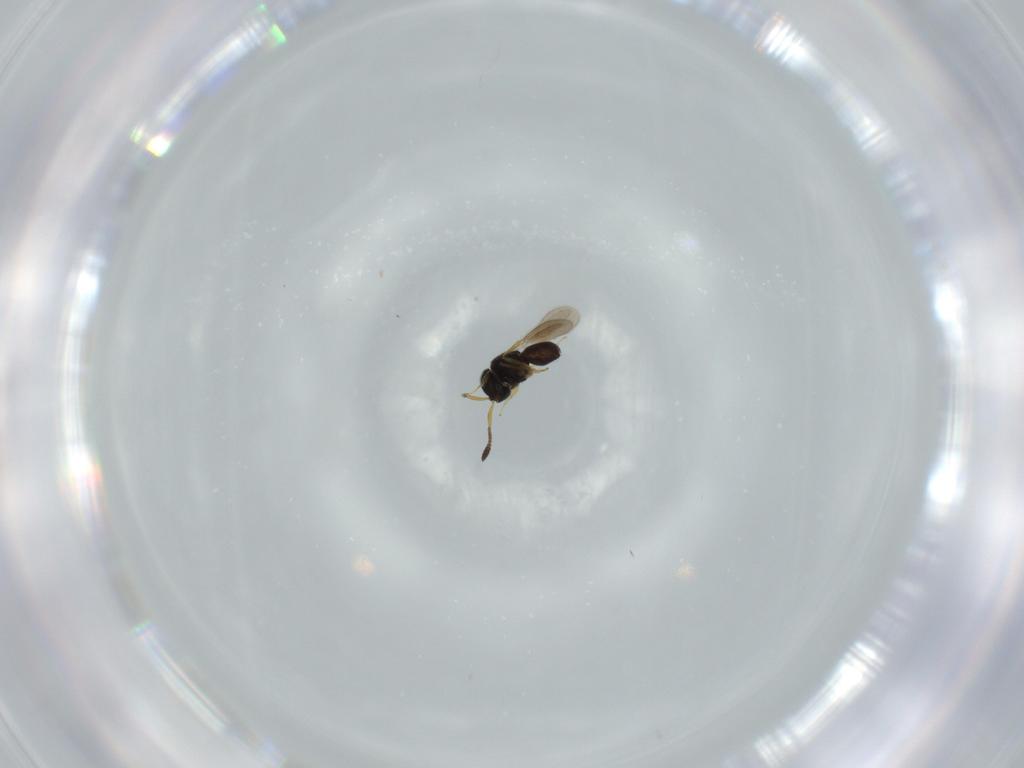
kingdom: Animalia
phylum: Arthropoda
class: Insecta
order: Hymenoptera
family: Scelionidae
